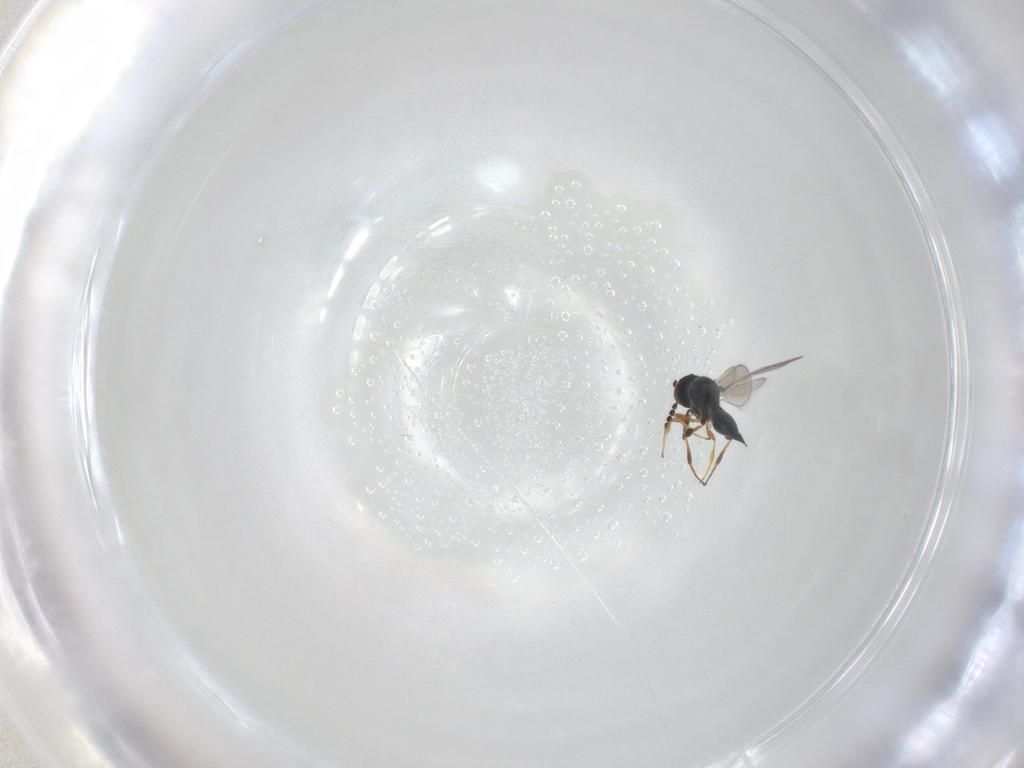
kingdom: Animalia
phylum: Arthropoda
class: Insecta
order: Hymenoptera
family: Platygastridae
